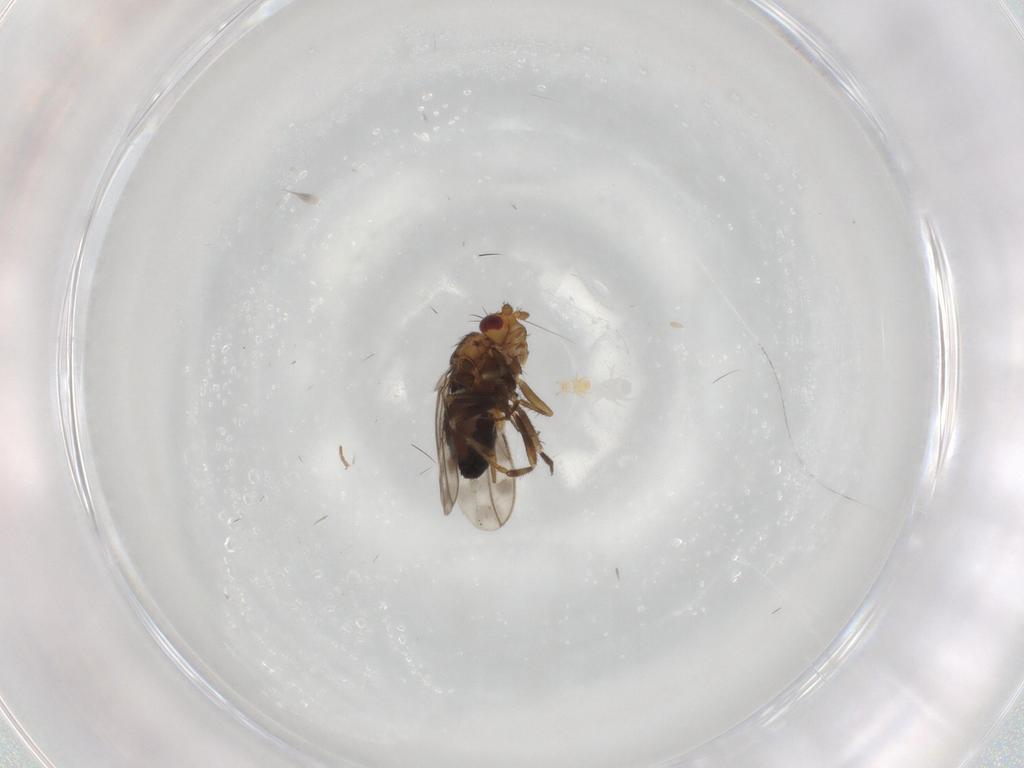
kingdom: Animalia
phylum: Arthropoda
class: Insecta
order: Diptera
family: Sphaeroceridae
